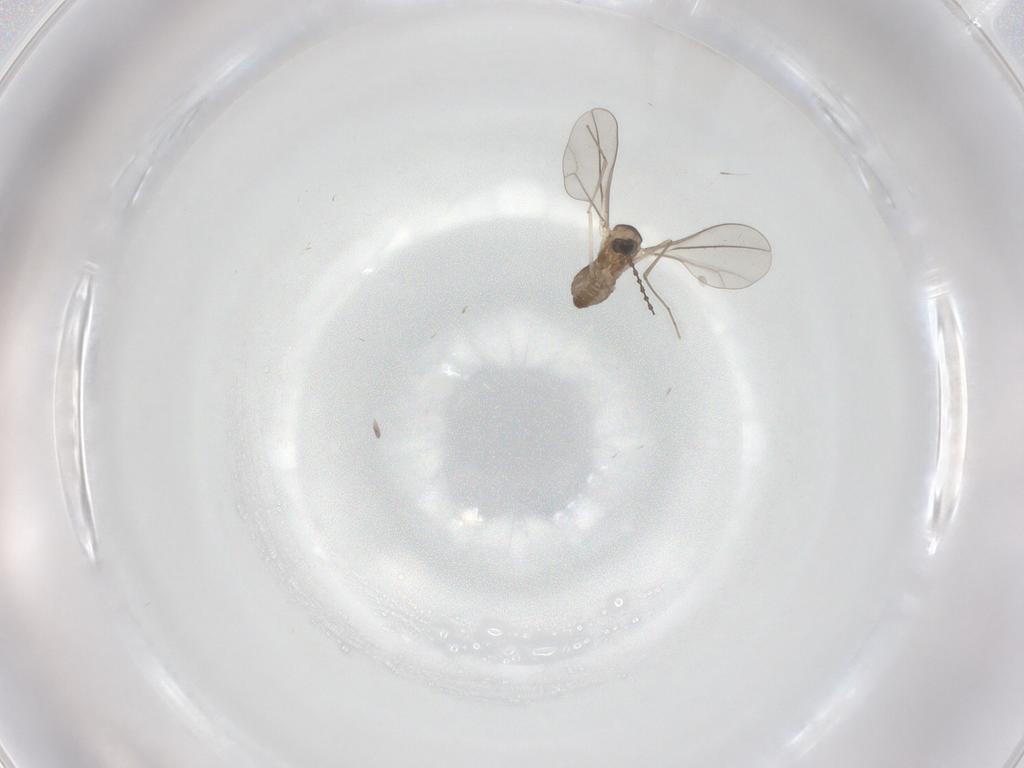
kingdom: Animalia
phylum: Arthropoda
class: Insecta
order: Diptera
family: Cecidomyiidae
